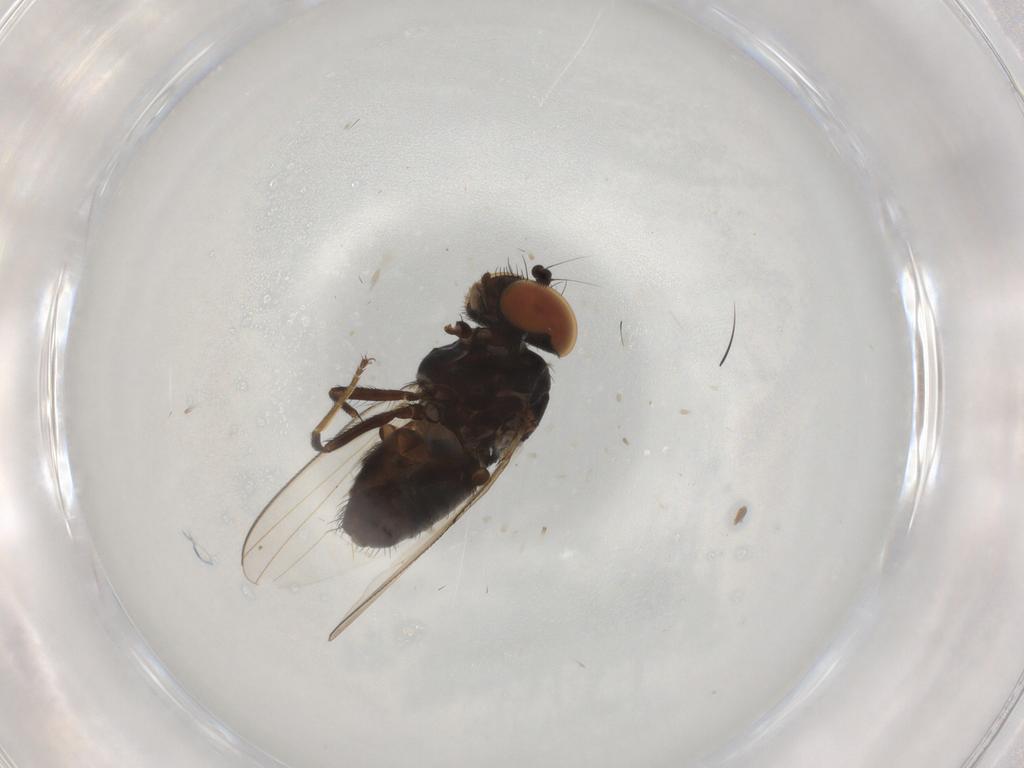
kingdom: Animalia
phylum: Arthropoda
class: Insecta
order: Diptera
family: Milichiidae
